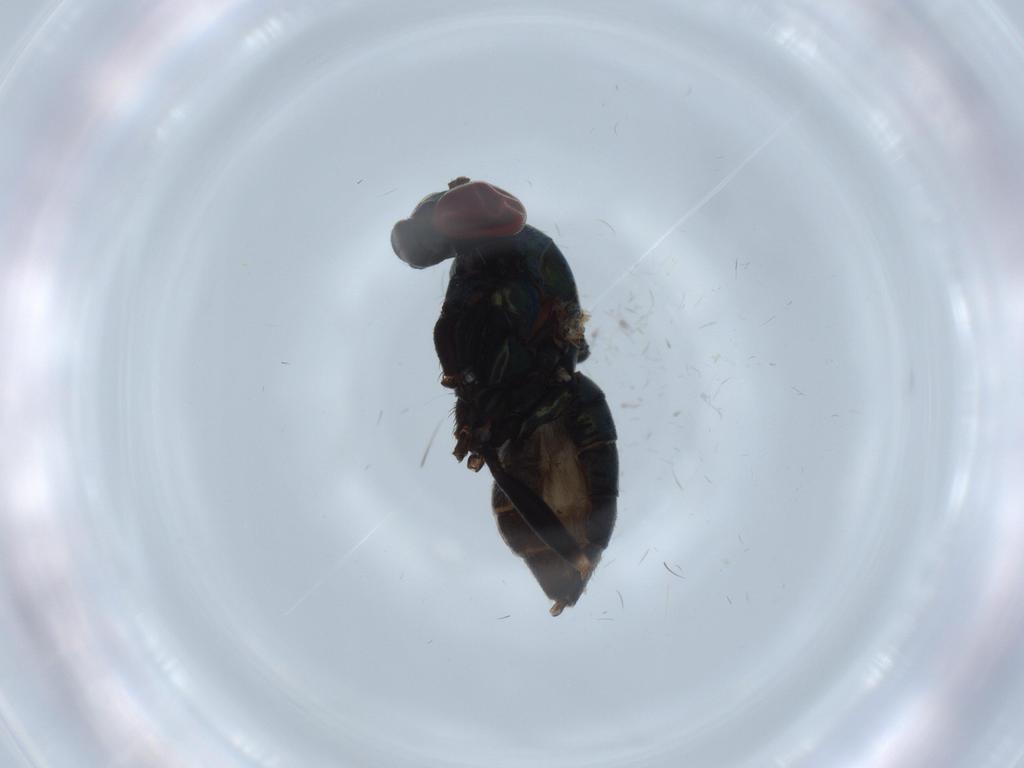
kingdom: Animalia
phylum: Arthropoda
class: Insecta
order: Diptera
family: Dolichopodidae
